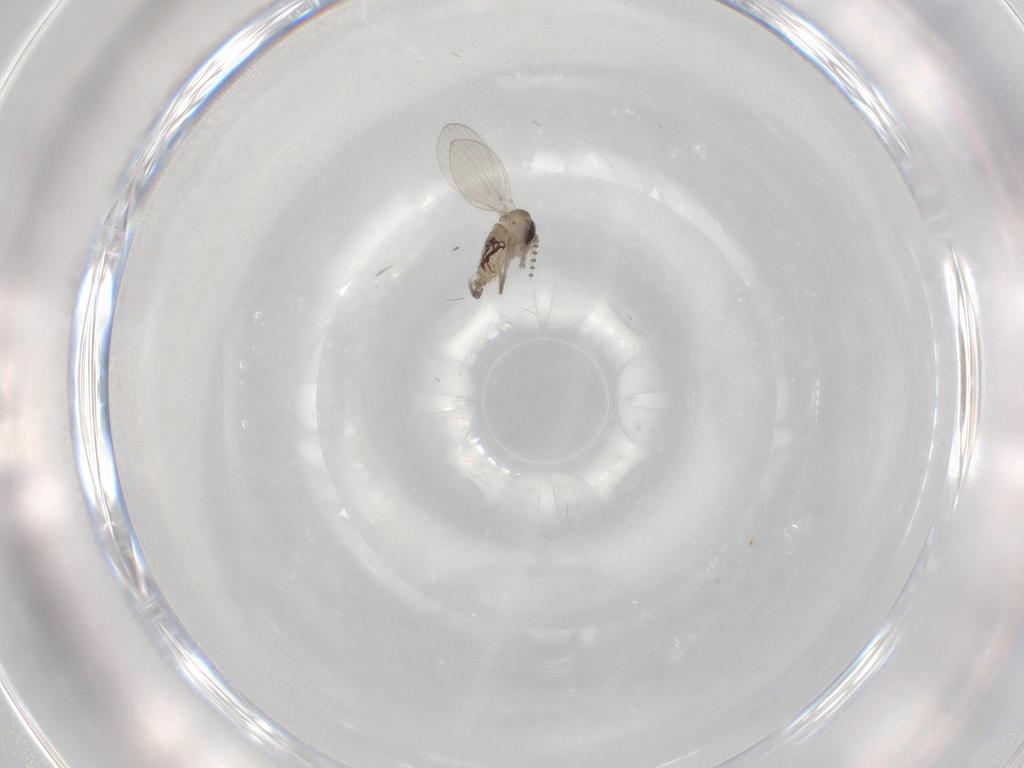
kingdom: Animalia
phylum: Arthropoda
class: Insecta
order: Diptera
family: Psychodidae
